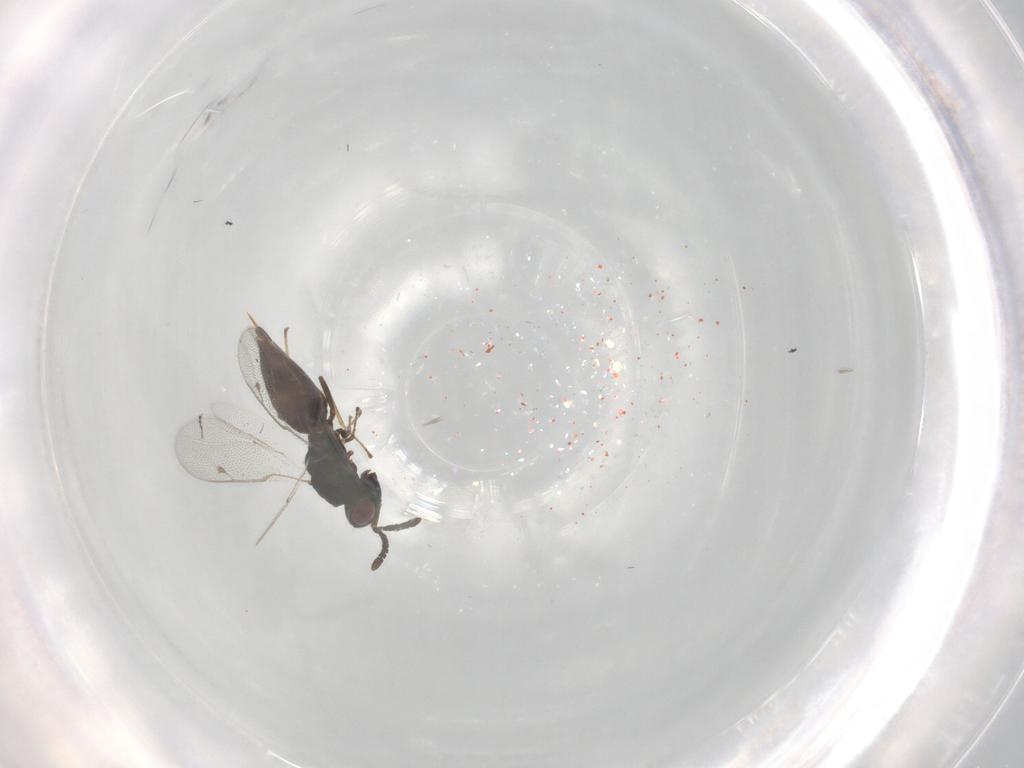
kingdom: Animalia
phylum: Arthropoda
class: Insecta
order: Hymenoptera
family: Pteromalidae
